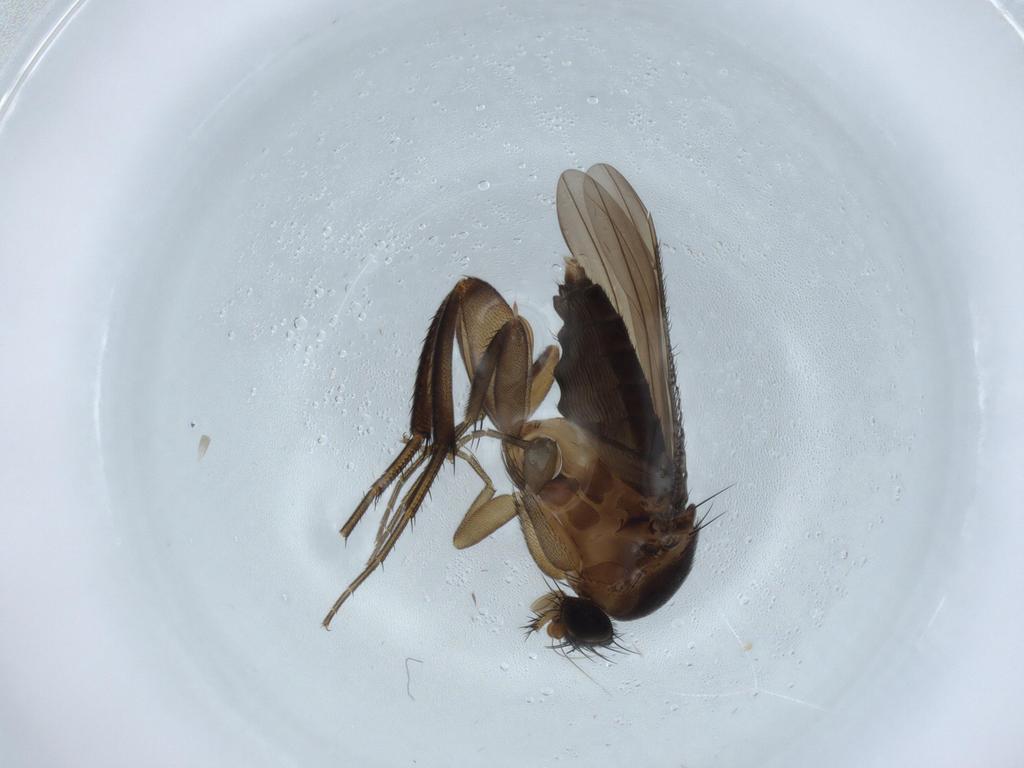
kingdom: Animalia
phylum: Arthropoda
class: Insecta
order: Diptera
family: Phoridae
